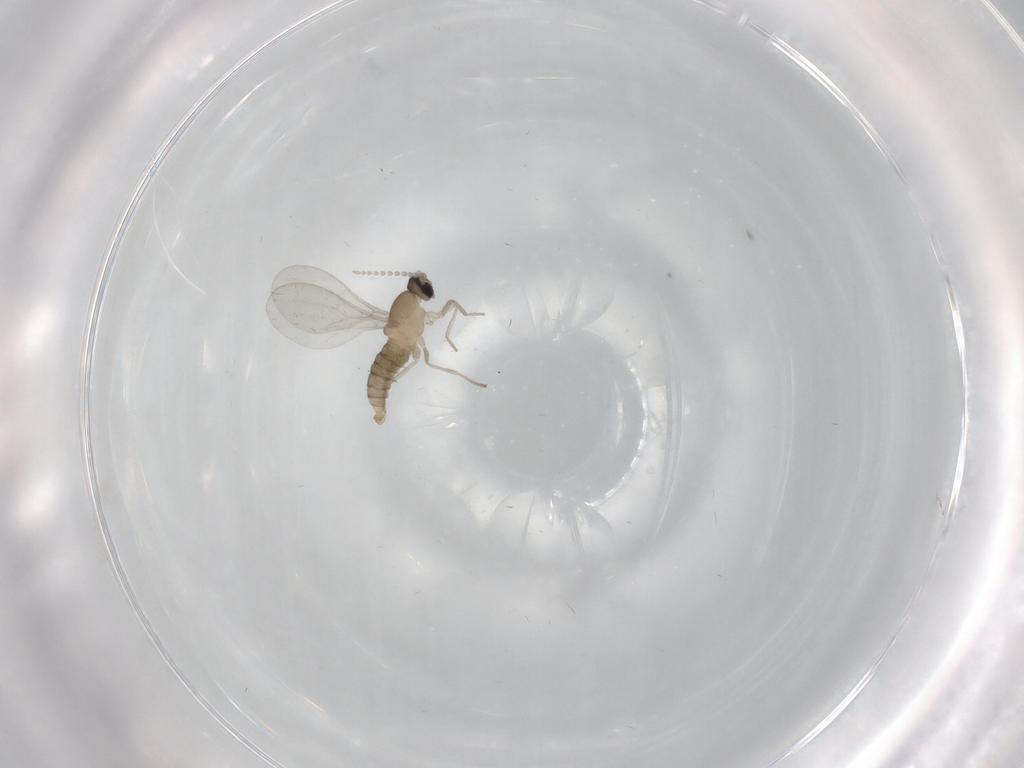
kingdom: Animalia
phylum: Arthropoda
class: Insecta
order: Diptera
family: Phoridae
